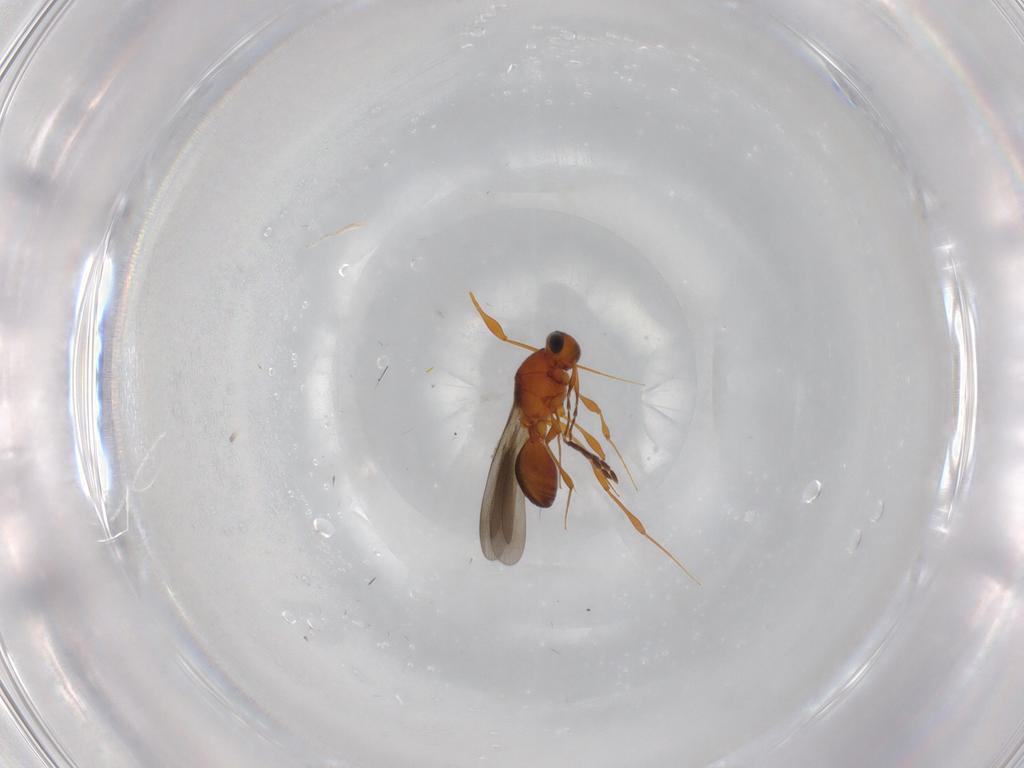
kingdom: Animalia
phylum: Arthropoda
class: Insecta
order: Hymenoptera
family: Platygastridae
